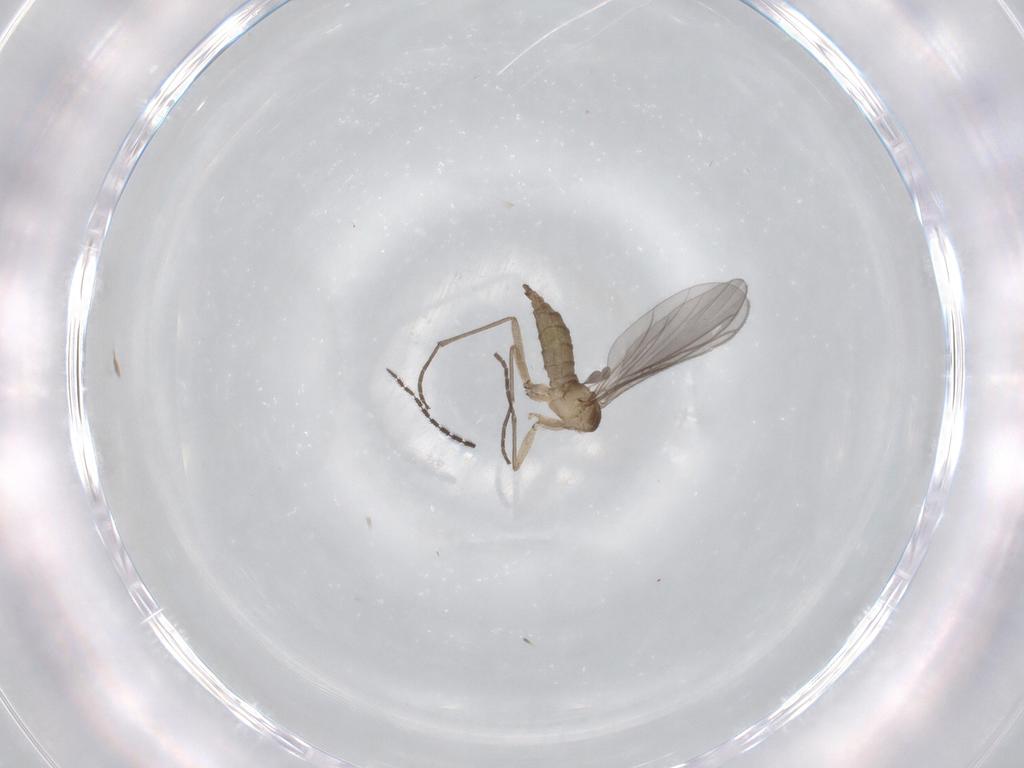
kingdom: Animalia
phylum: Arthropoda
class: Insecta
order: Diptera
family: Sciaridae
